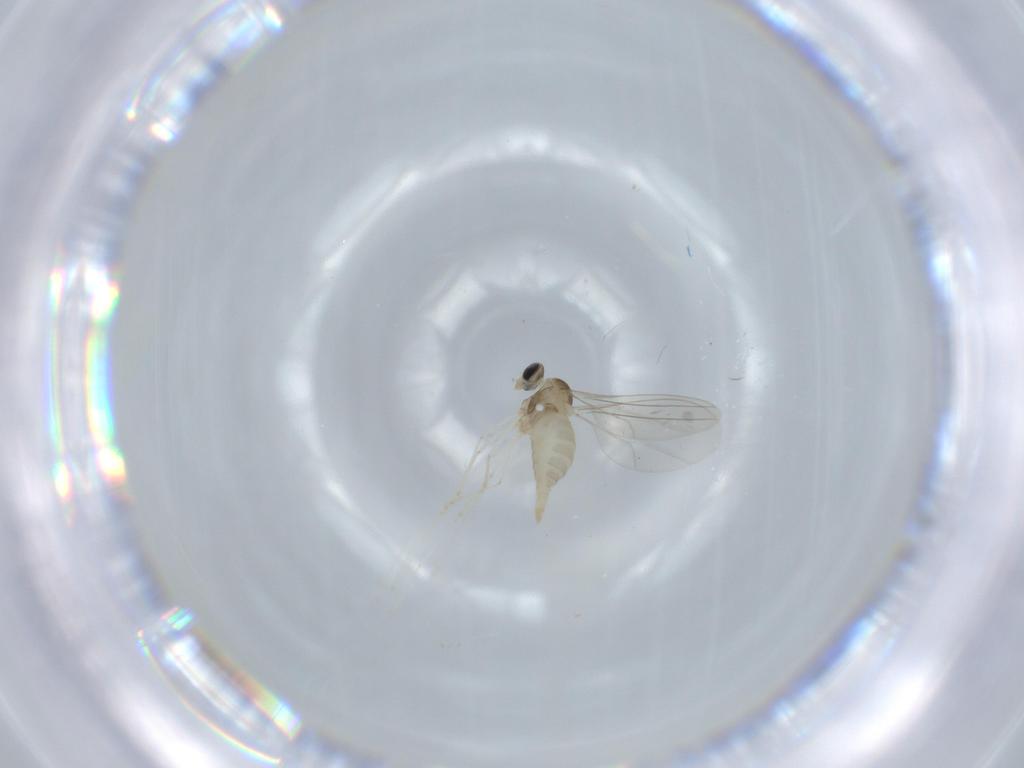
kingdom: Animalia
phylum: Arthropoda
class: Insecta
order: Diptera
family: Cecidomyiidae
